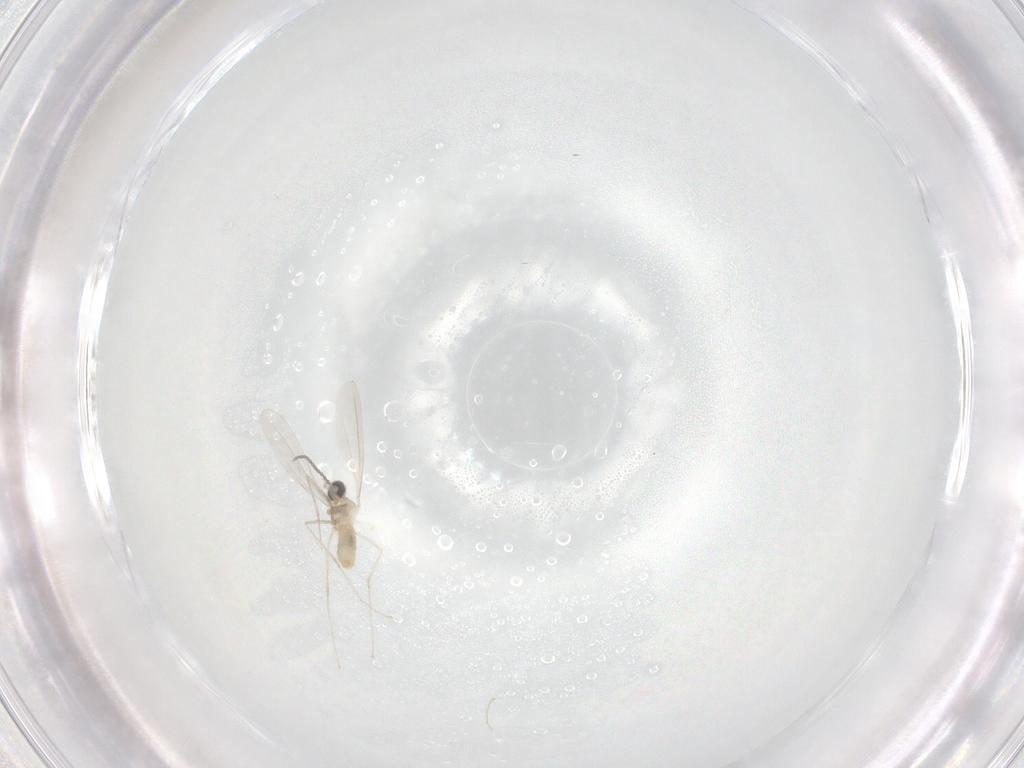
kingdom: Animalia
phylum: Arthropoda
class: Insecta
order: Diptera
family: Cecidomyiidae
